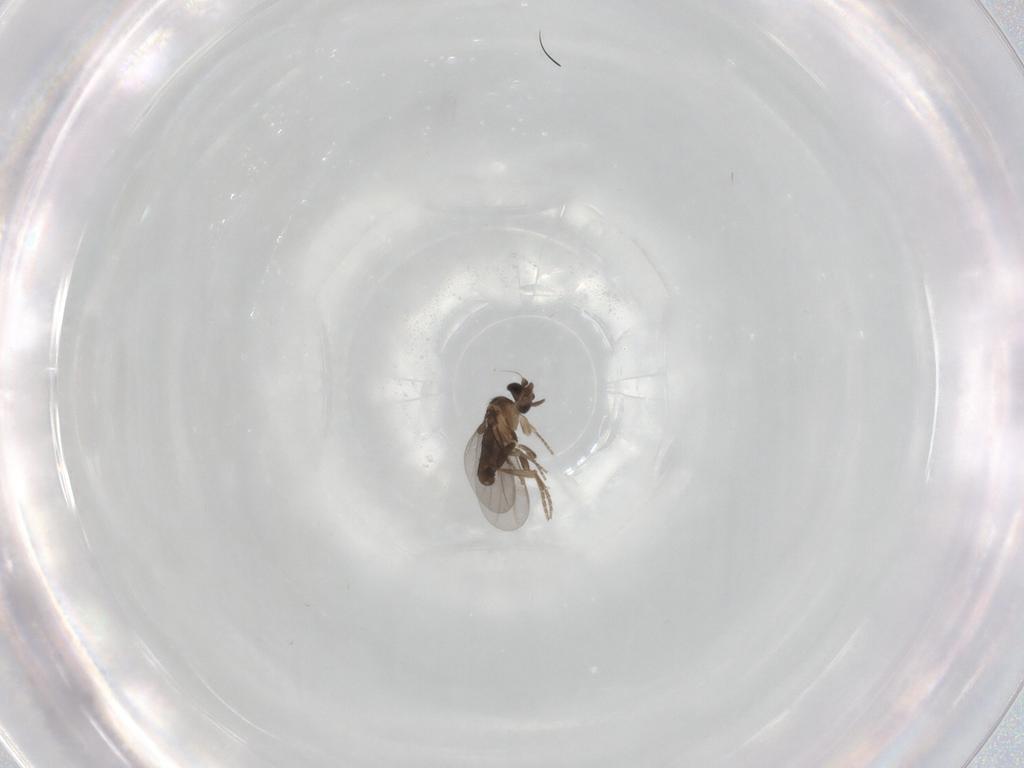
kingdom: Animalia
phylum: Arthropoda
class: Insecta
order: Diptera
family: Chironomidae
